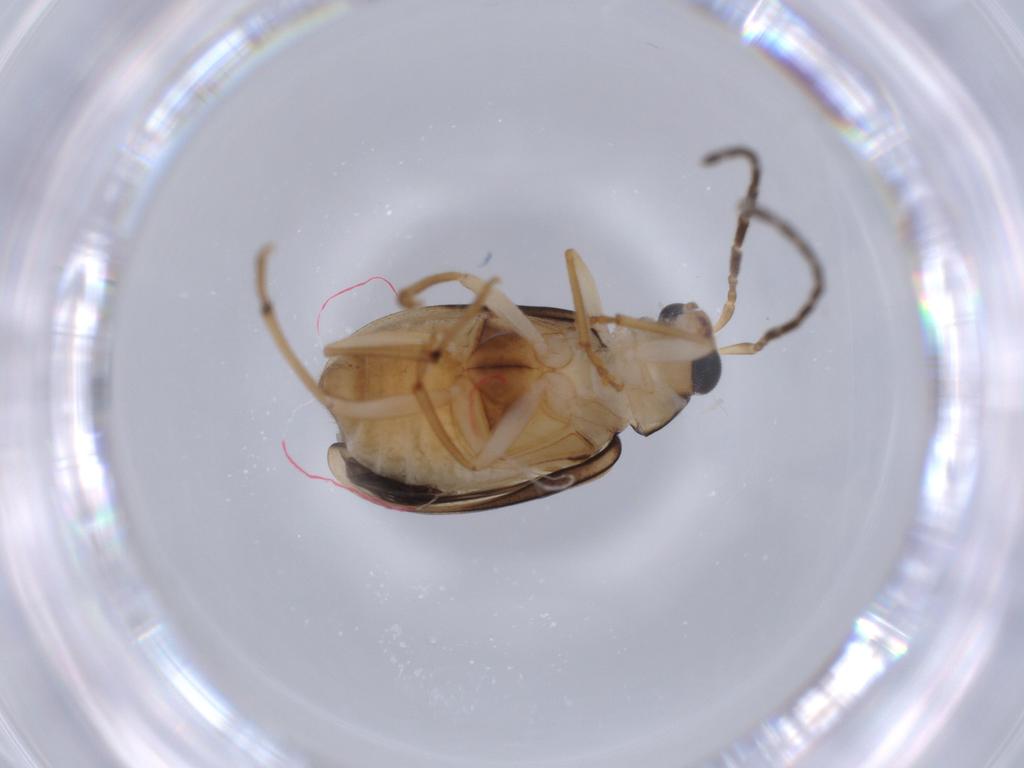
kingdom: Animalia
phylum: Arthropoda
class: Insecta
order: Coleoptera
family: Chrysomelidae
